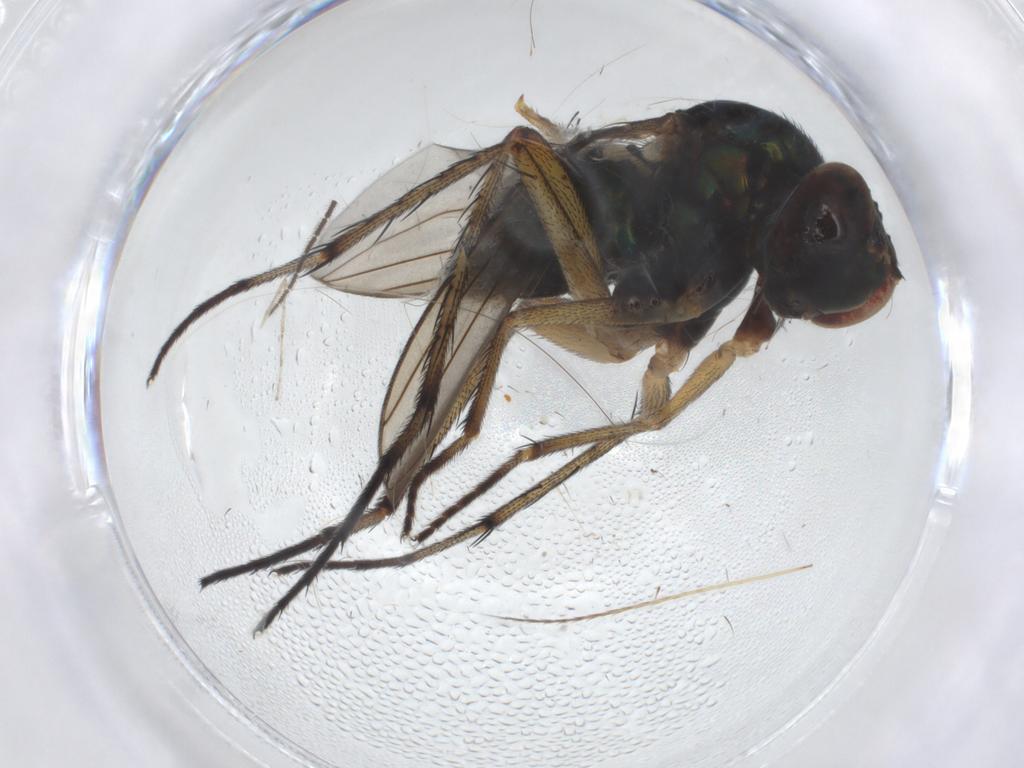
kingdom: Animalia
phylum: Arthropoda
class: Insecta
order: Diptera
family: Dolichopodidae
